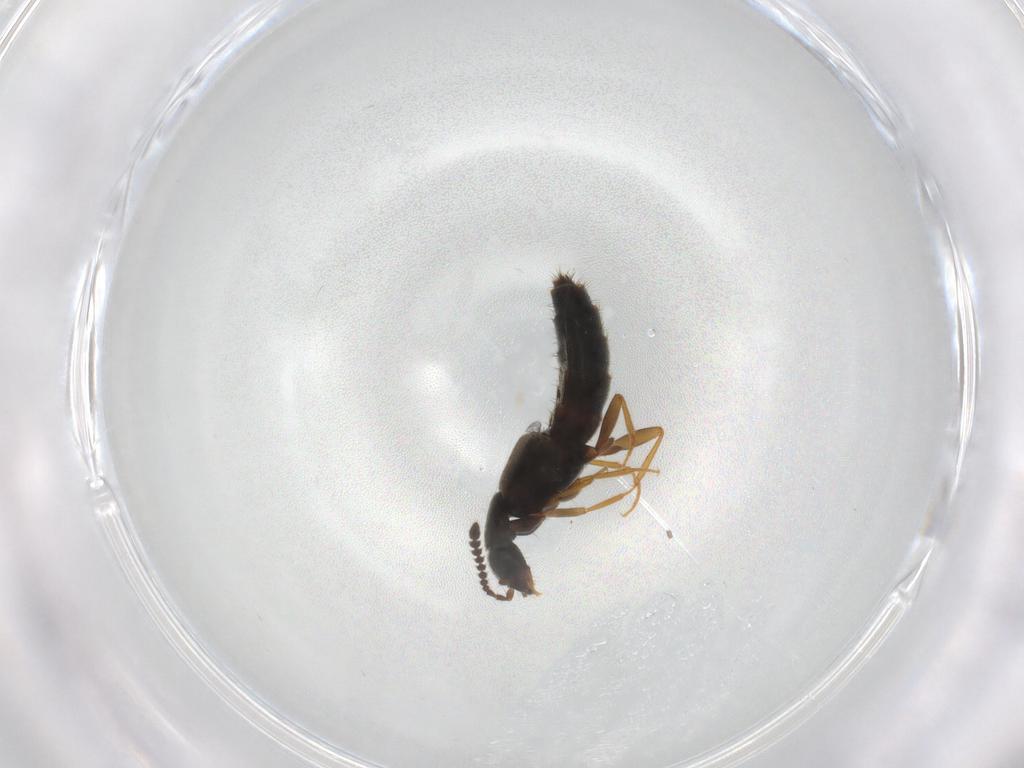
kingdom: Animalia
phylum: Arthropoda
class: Insecta
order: Coleoptera
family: Staphylinidae
